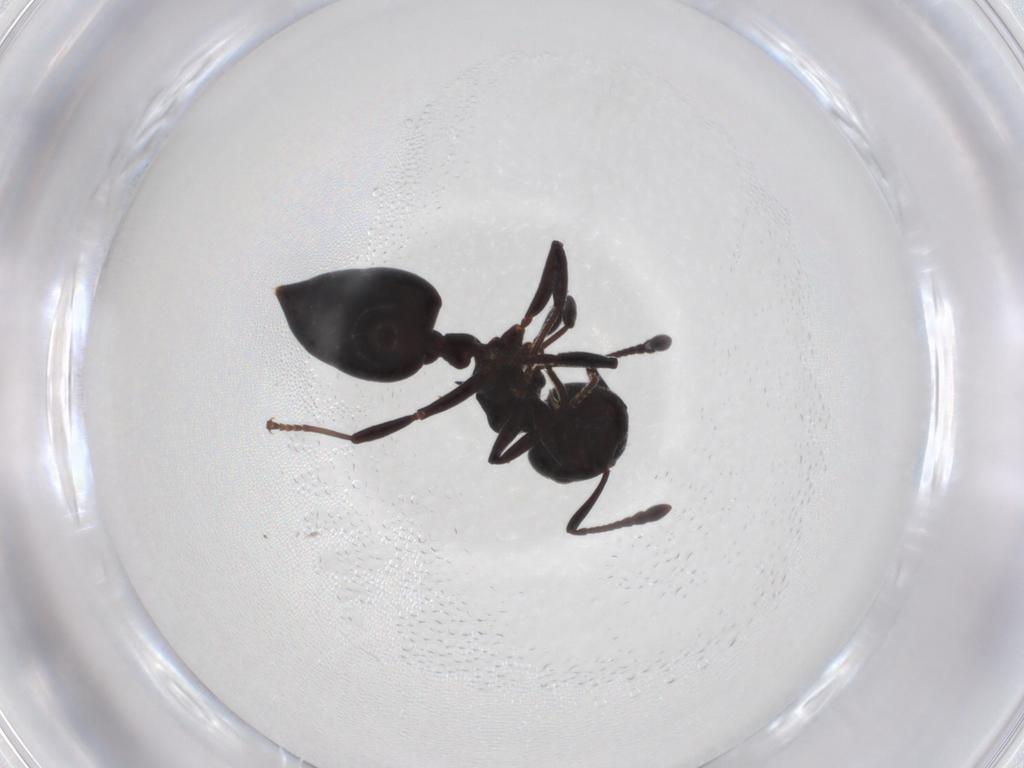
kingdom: Animalia
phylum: Arthropoda
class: Insecta
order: Hymenoptera
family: Formicidae
